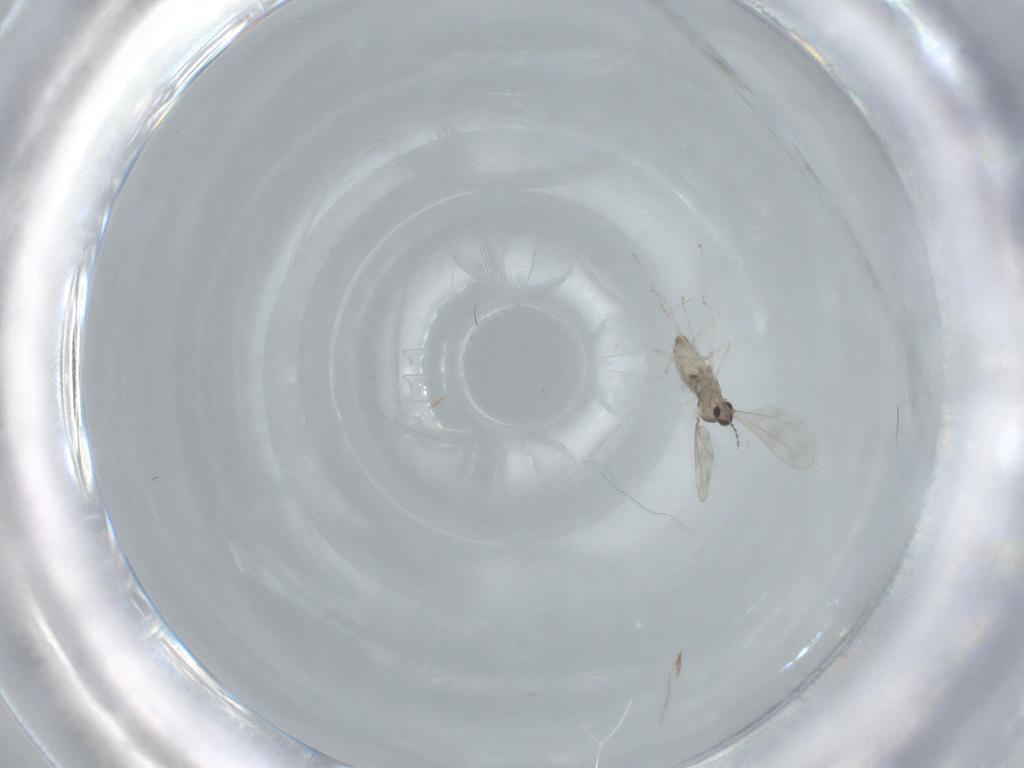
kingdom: Animalia
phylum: Arthropoda
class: Insecta
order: Diptera
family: Cecidomyiidae
